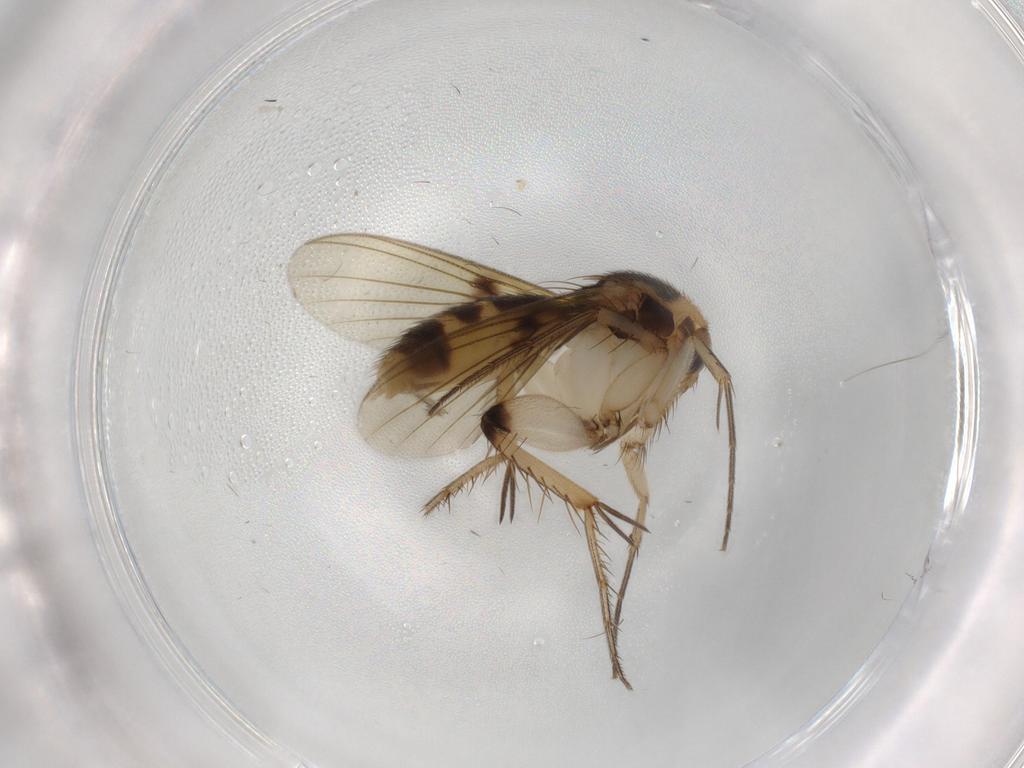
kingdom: Animalia
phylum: Arthropoda
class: Insecta
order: Diptera
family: Mycetophilidae
